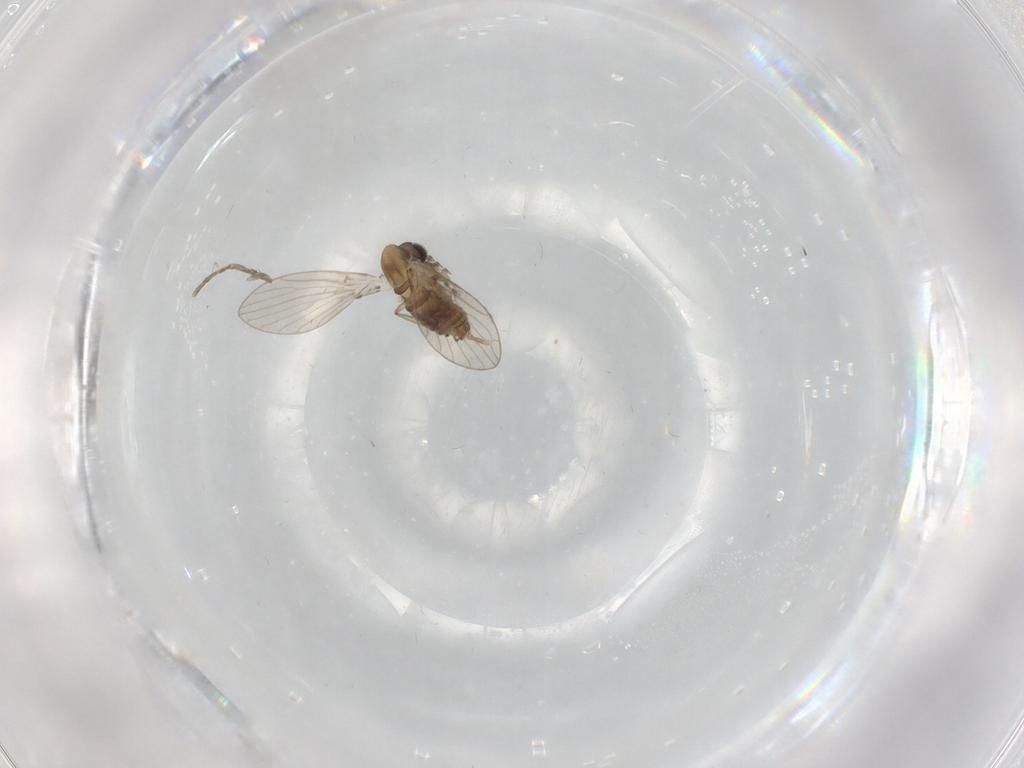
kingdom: Animalia
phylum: Arthropoda
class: Insecta
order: Diptera
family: Psychodidae
